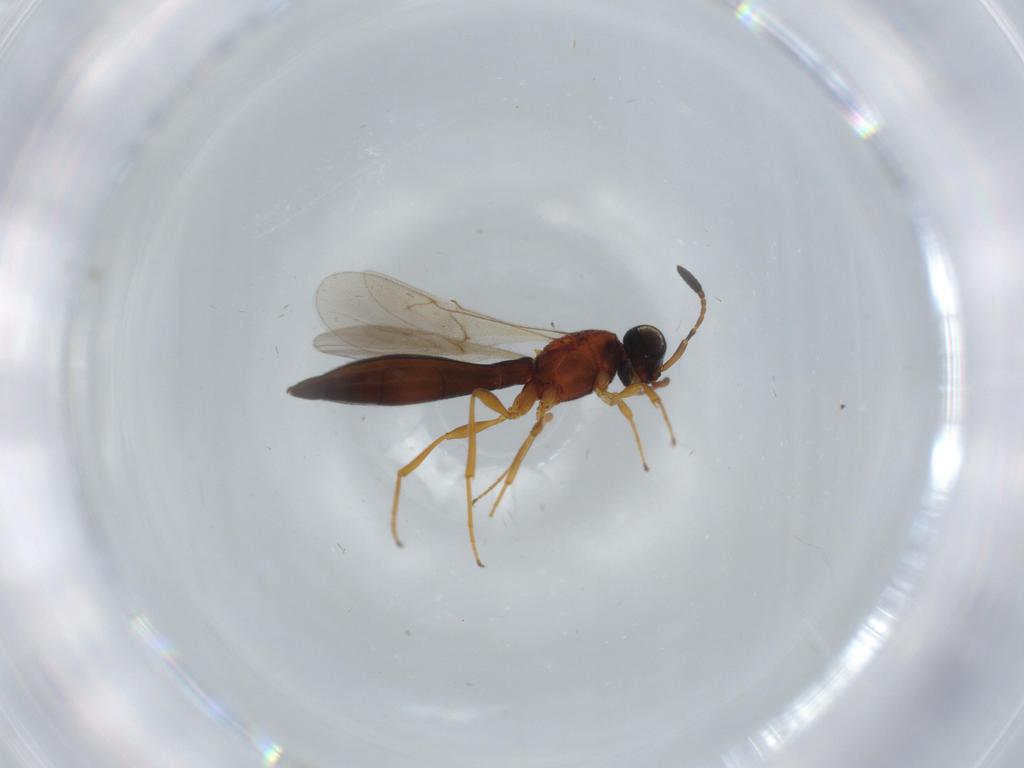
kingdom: Animalia
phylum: Arthropoda
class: Insecta
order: Hymenoptera
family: Scelionidae
